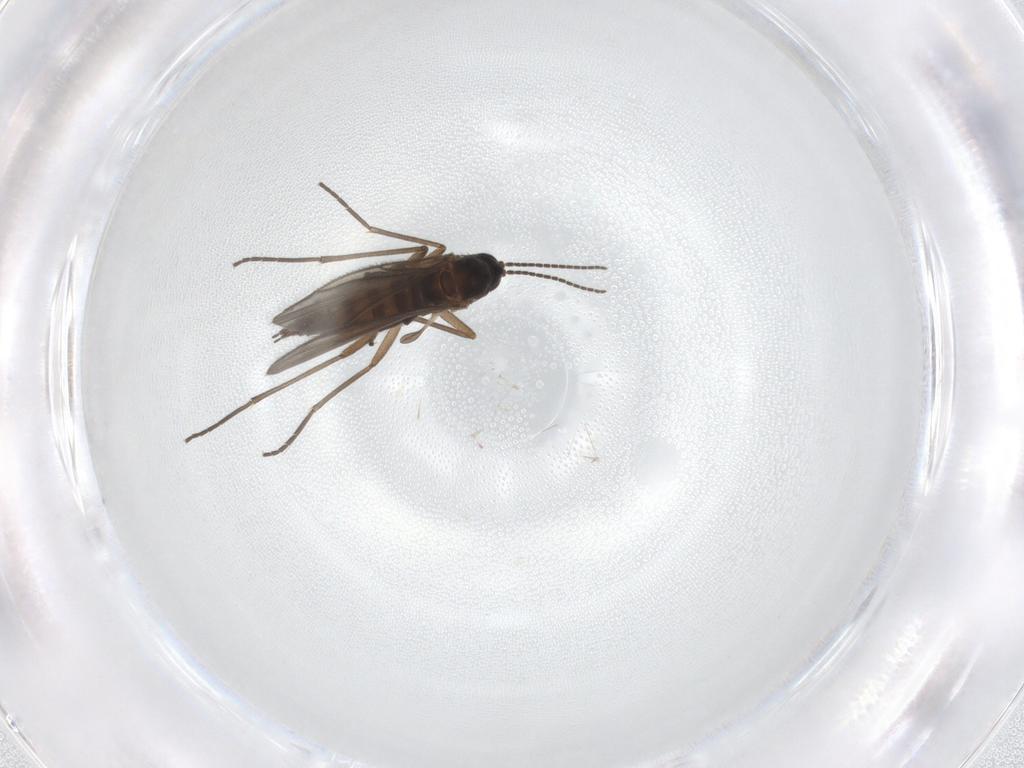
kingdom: Animalia
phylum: Arthropoda
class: Insecta
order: Diptera
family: Sciaridae
